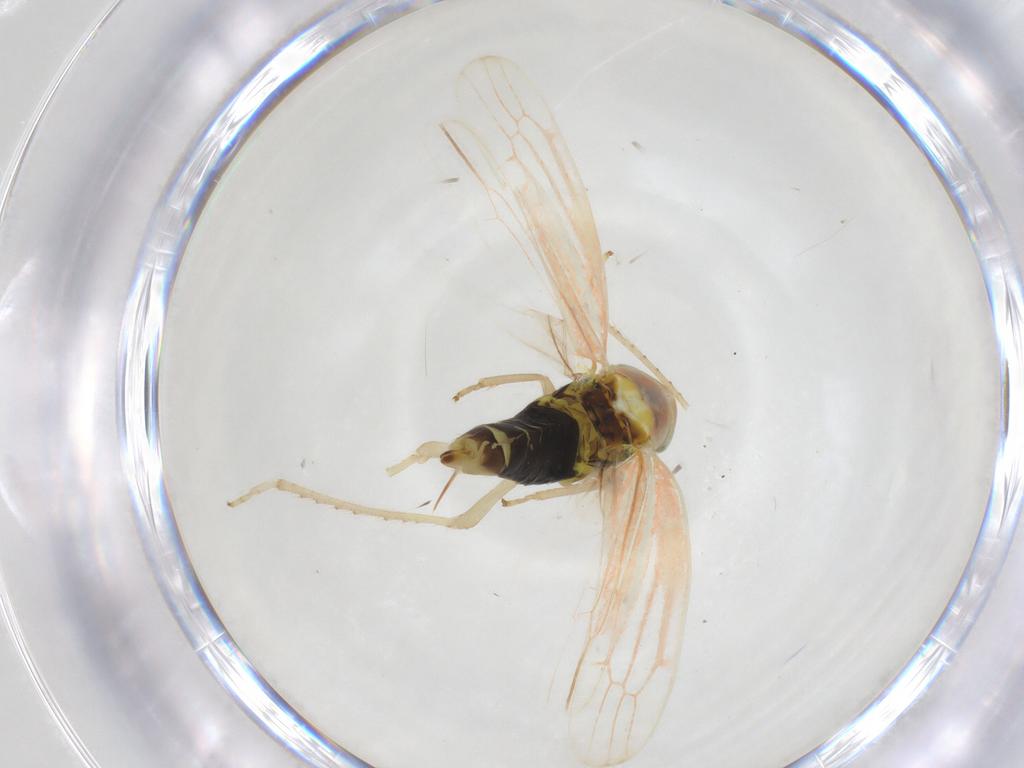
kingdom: Animalia
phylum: Arthropoda
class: Insecta
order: Hemiptera
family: Cicadellidae
